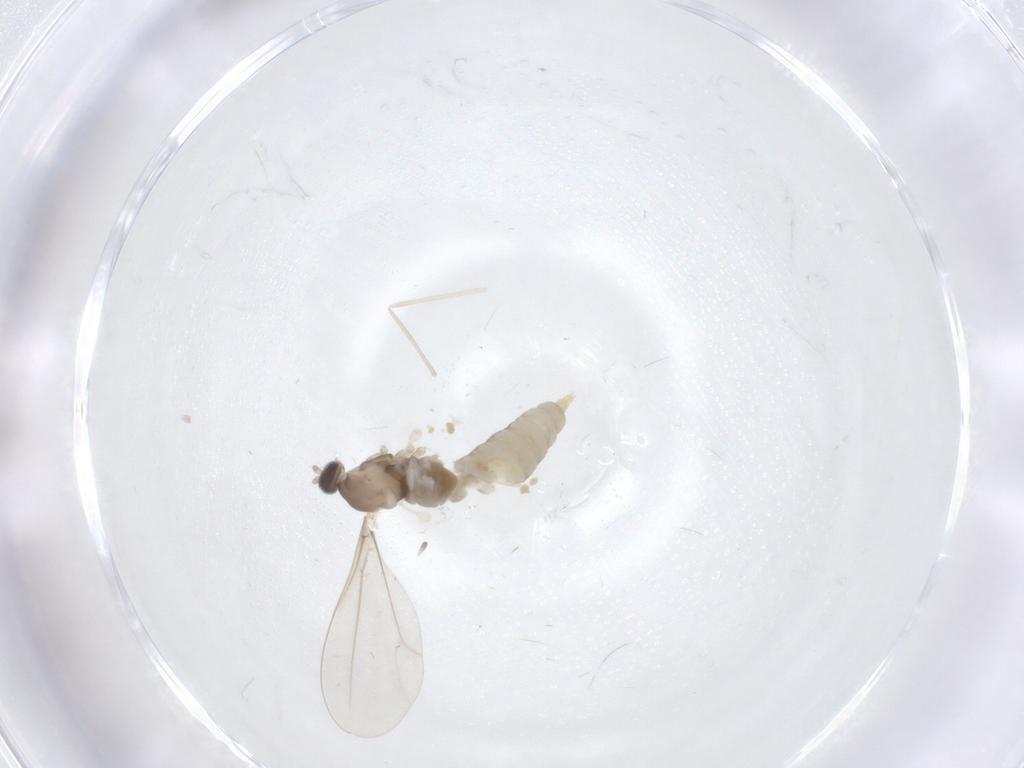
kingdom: Animalia
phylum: Arthropoda
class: Insecta
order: Diptera
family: Cecidomyiidae
